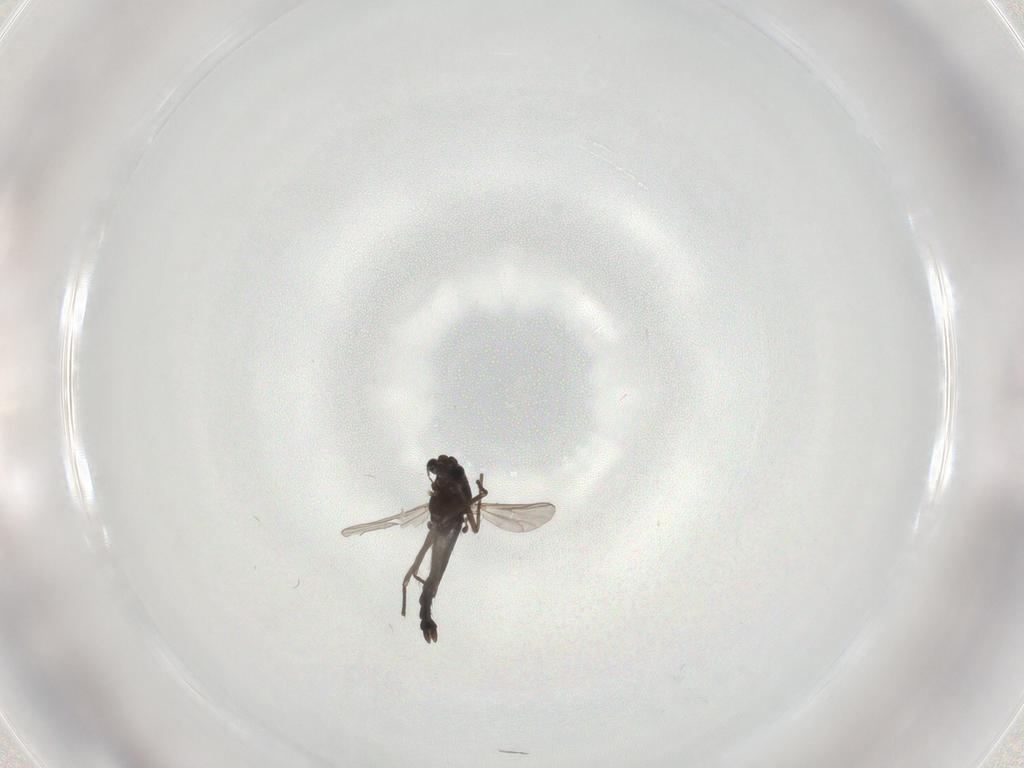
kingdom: Animalia
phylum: Arthropoda
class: Insecta
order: Diptera
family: Chironomidae
